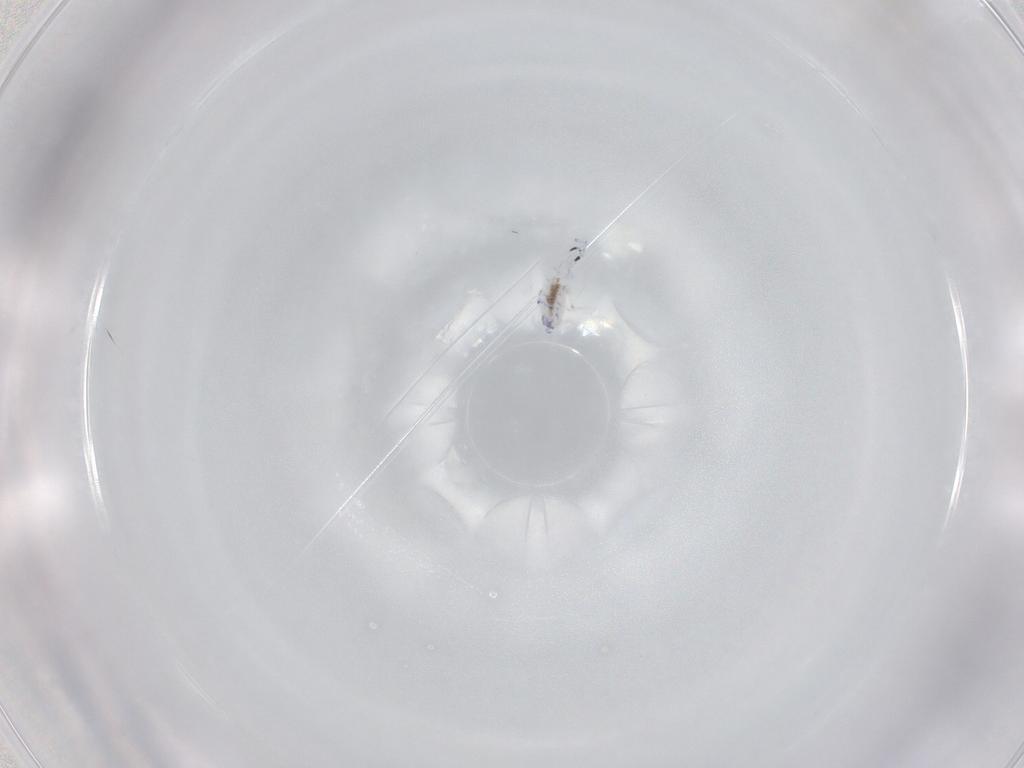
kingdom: Animalia
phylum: Arthropoda
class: Collembola
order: Entomobryomorpha
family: Entomobryidae
